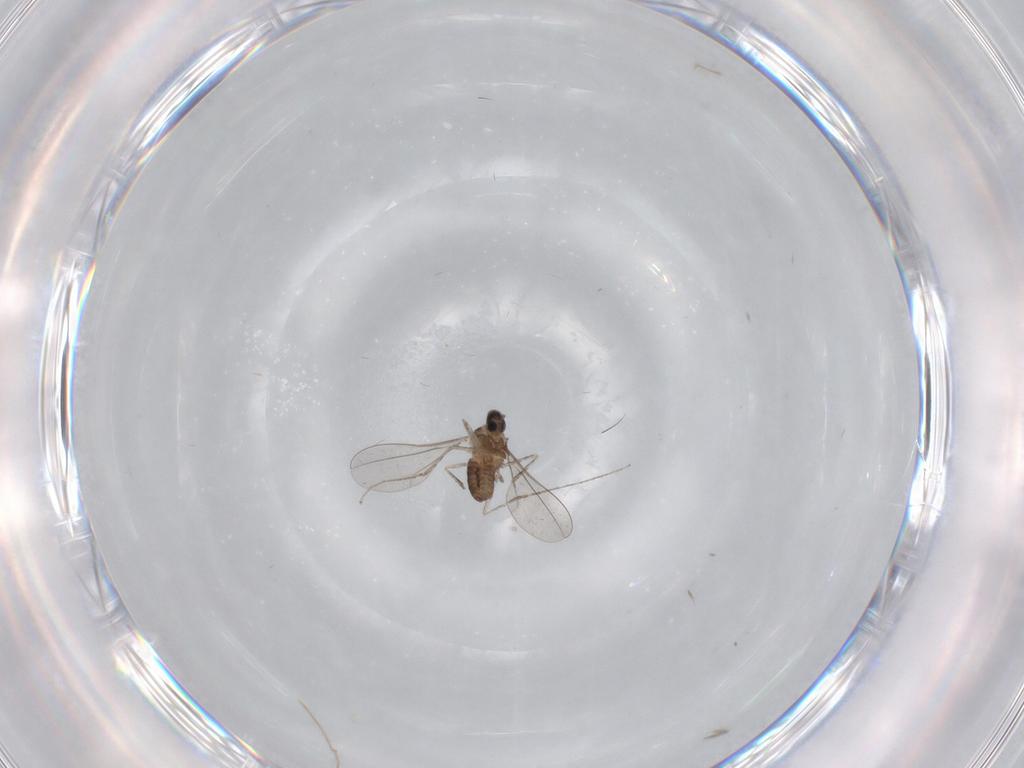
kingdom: Animalia
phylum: Arthropoda
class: Insecta
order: Diptera
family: Cecidomyiidae
